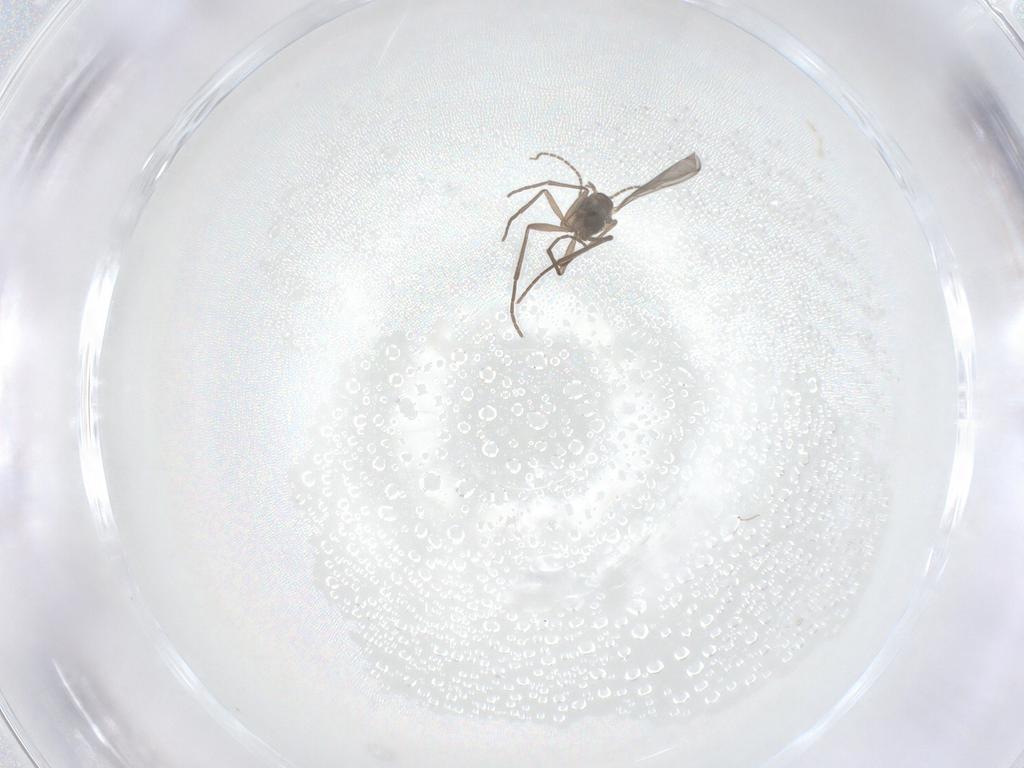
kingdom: Animalia
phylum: Arthropoda
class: Insecta
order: Diptera
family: Sciaridae
